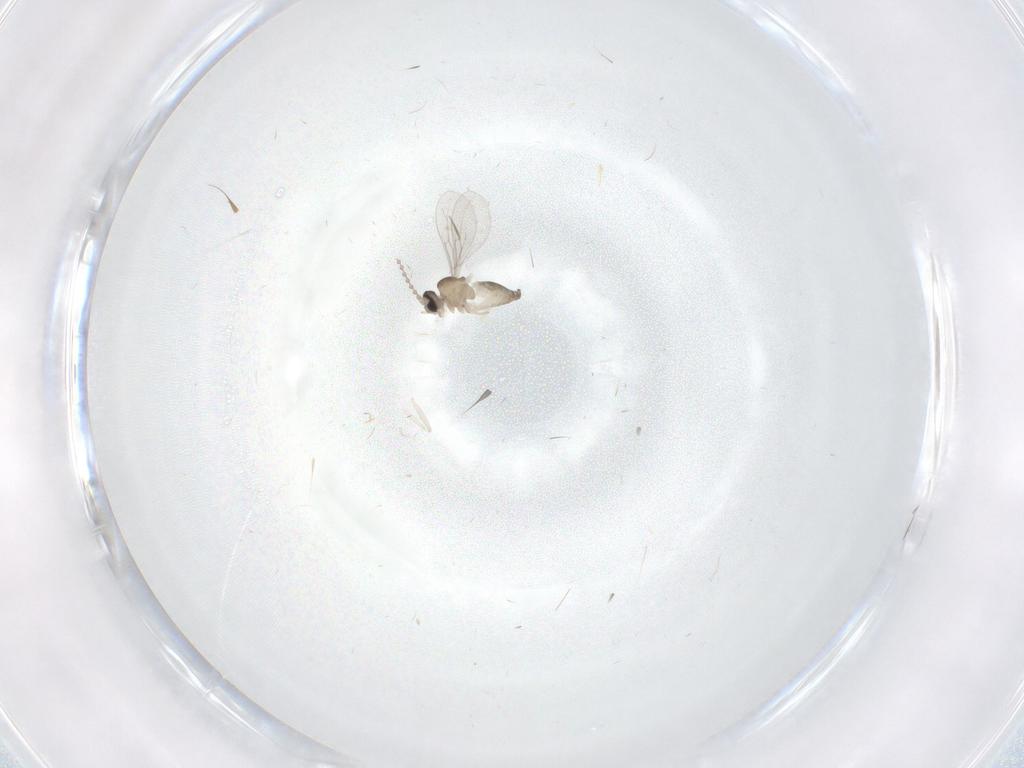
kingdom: Animalia
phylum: Arthropoda
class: Insecta
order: Diptera
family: Cecidomyiidae
